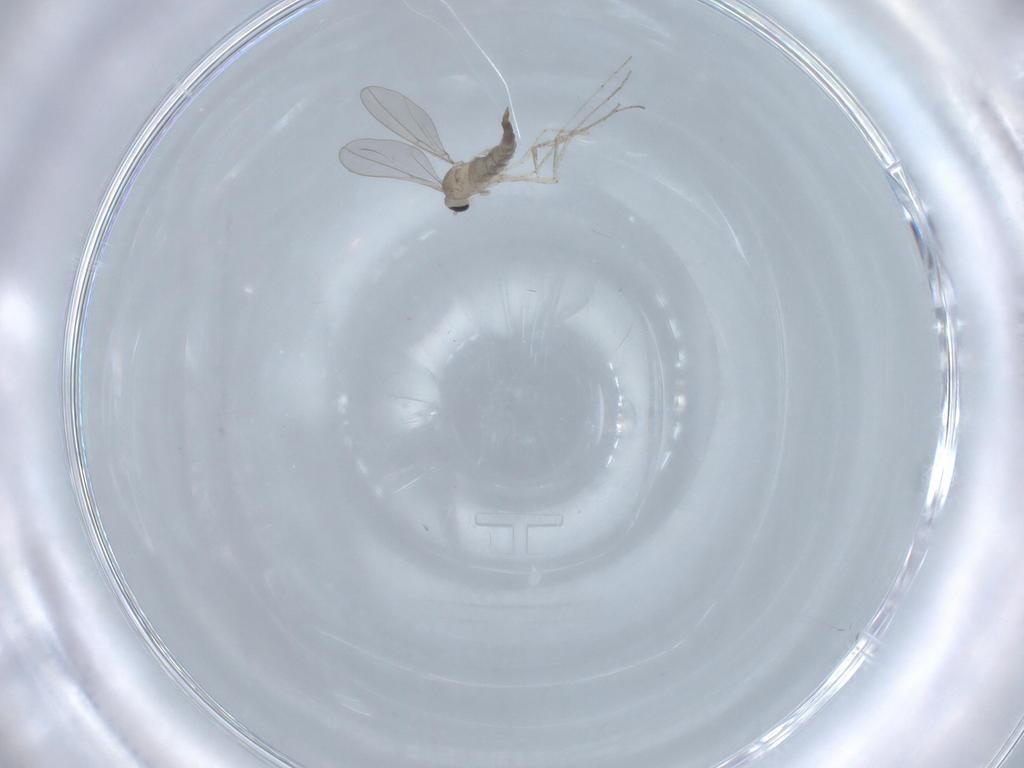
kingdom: Animalia
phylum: Arthropoda
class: Insecta
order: Diptera
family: Cecidomyiidae
